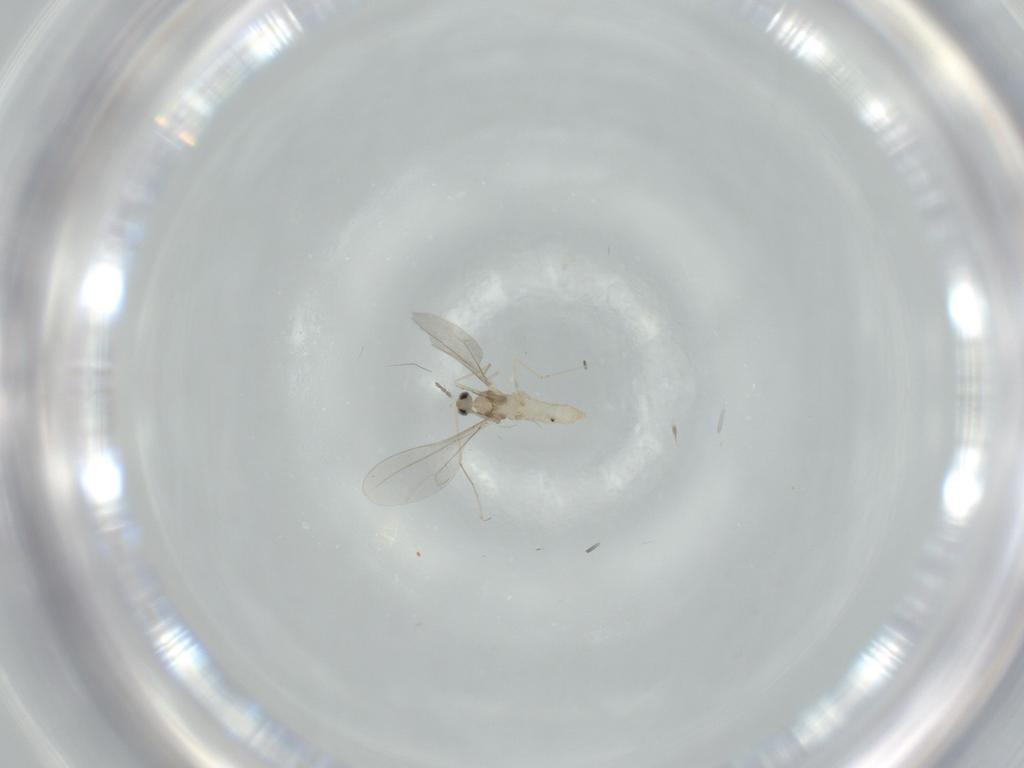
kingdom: Animalia
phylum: Arthropoda
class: Insecta
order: Diptera
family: Cecidomyiidae
